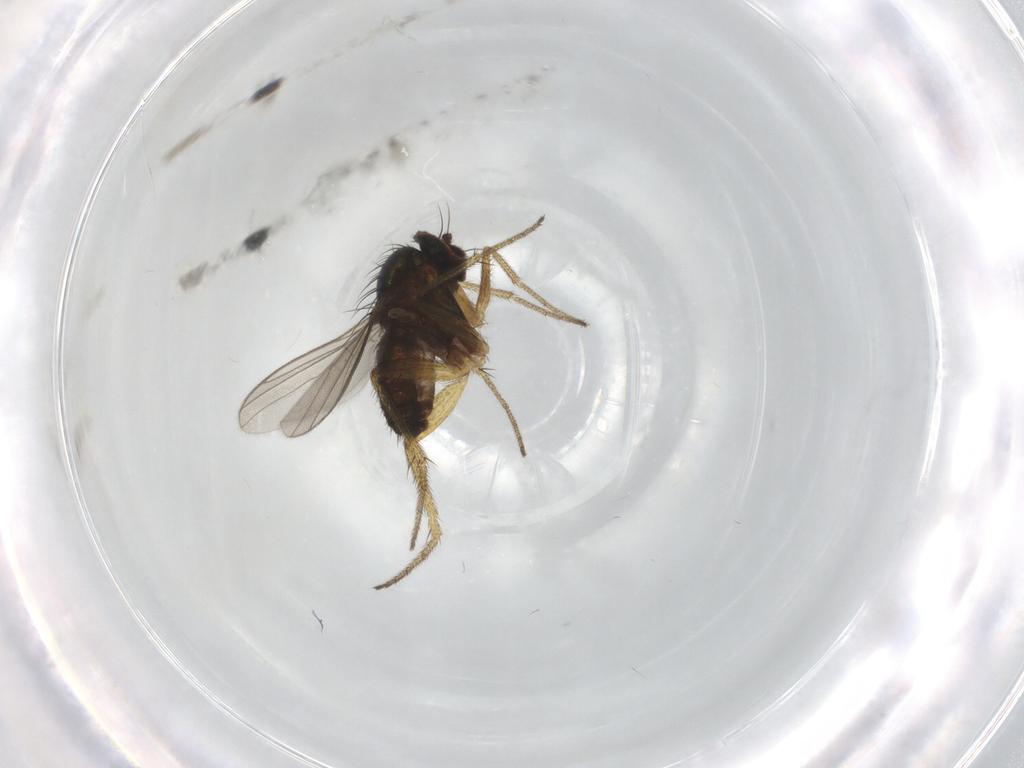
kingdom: Animalia
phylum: Arthropoda
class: Insecta
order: Diptera
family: Dolichopodidae
